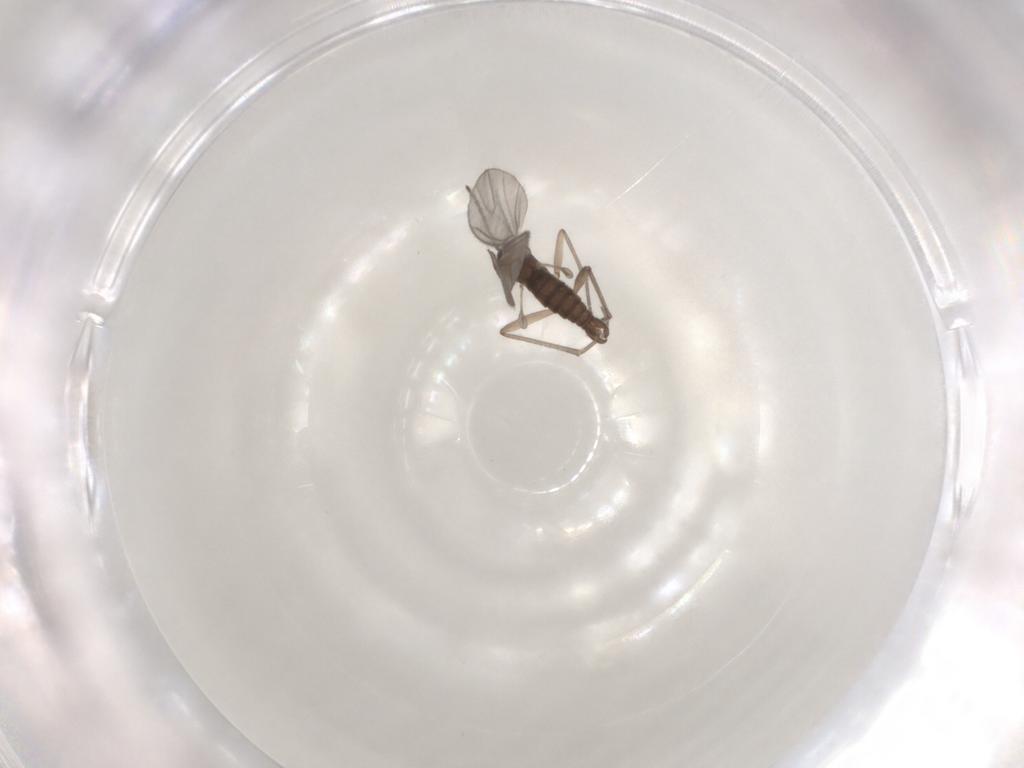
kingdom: Animalia
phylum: Arthropoda
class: Insecta
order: Diptera
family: Sciaridae
